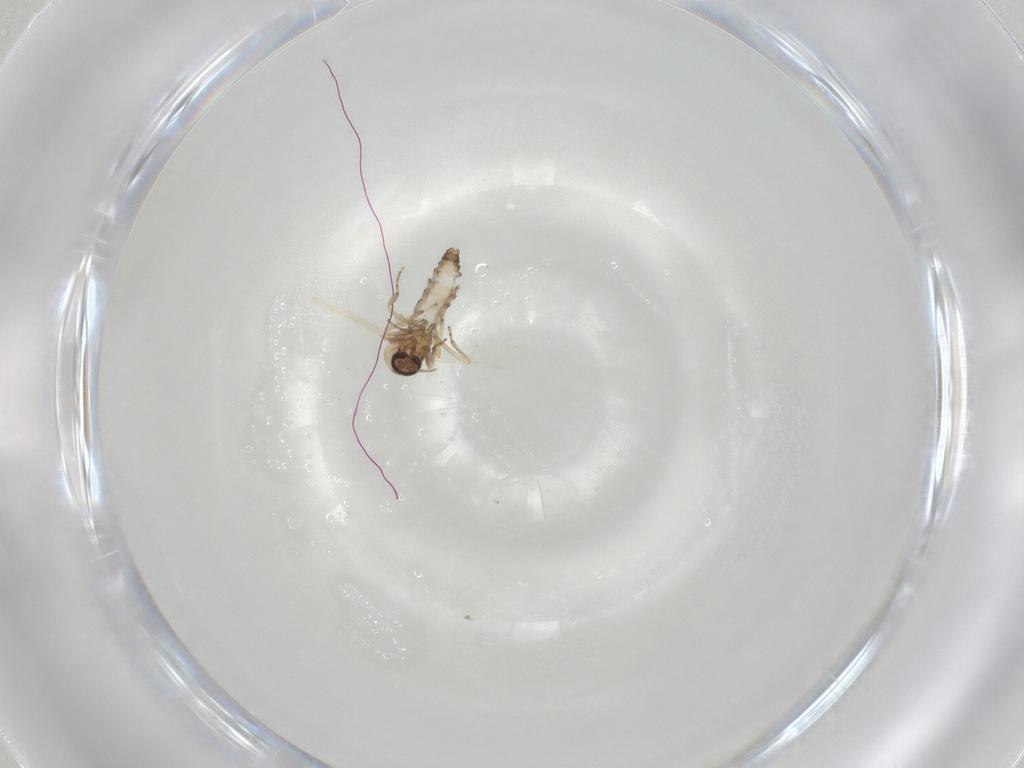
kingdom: Animalia
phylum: Arthropoda
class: Insecta
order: Diptera
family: Ceratopogonidae
